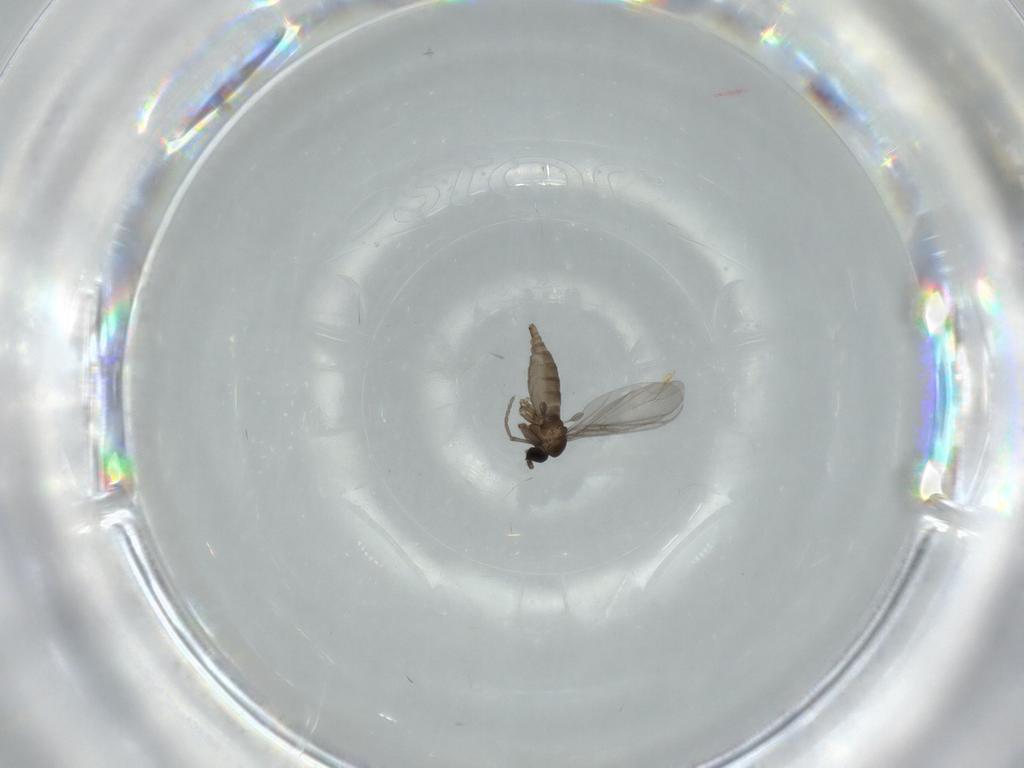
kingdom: Animalia
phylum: Arthropoda
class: Insecta
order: Diptera
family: Sciaridae
